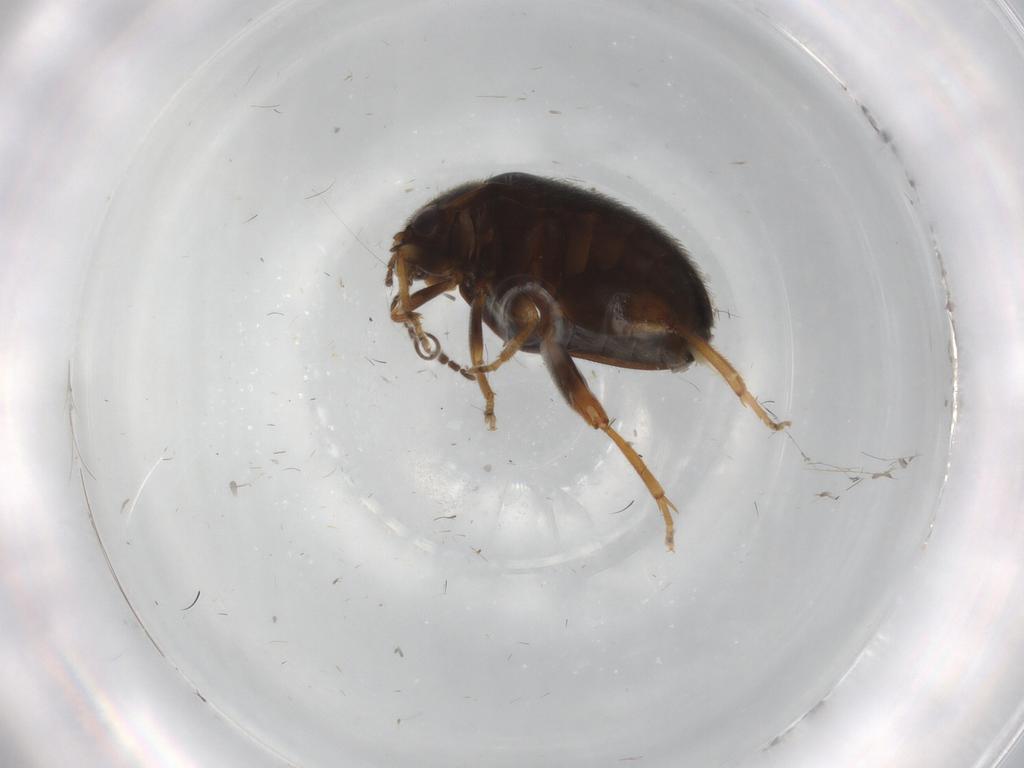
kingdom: Animalia
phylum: Arthropoda
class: Insecta
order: Coleoptera
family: Scirtidae
